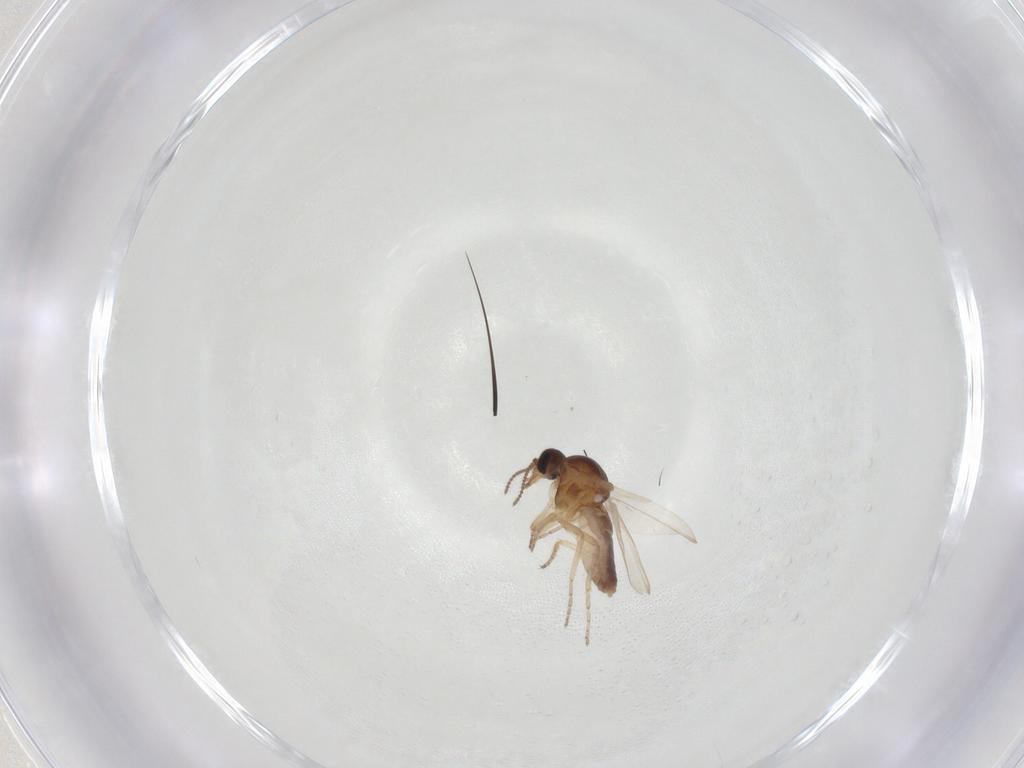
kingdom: Animalia
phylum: Arthropoda
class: Insecta
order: Diptera
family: Ceratopogonidae
